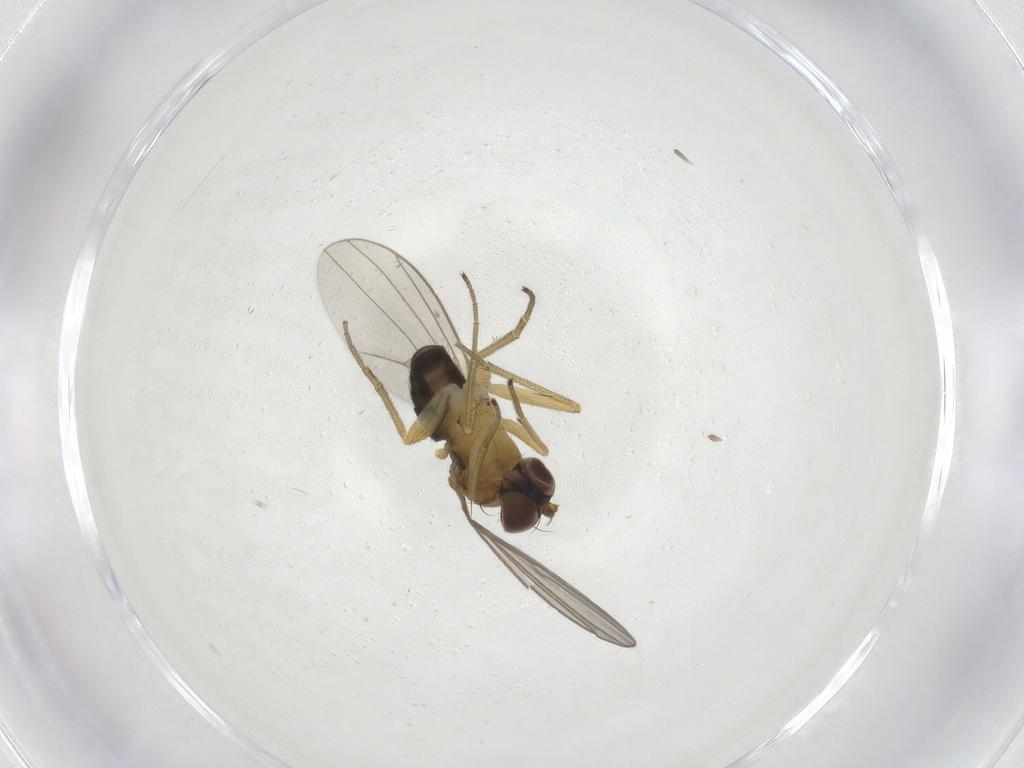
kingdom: Animalia
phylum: Arthropoda
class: Insecta
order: Diptera
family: Dolichopodidae
